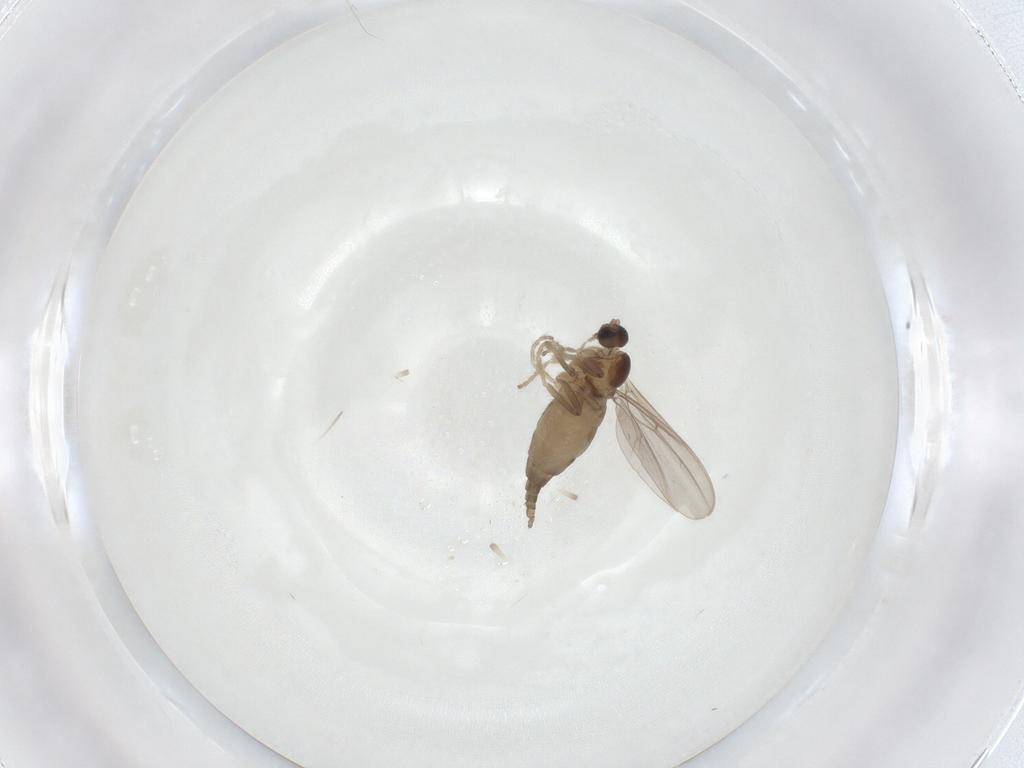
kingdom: Animalia
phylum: Arthropoda
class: Insecta
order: Diptera
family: Cecidomyiidae
